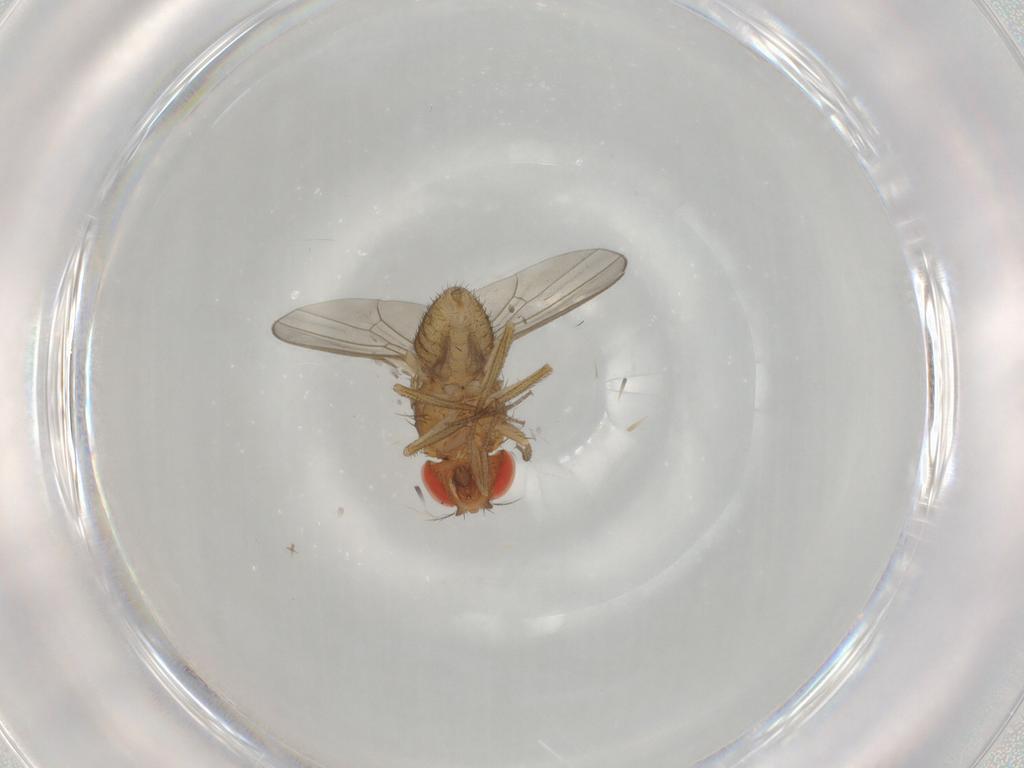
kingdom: Animalia
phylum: Arthropoda
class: Insecta
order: Diptera
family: Drosophilidae
